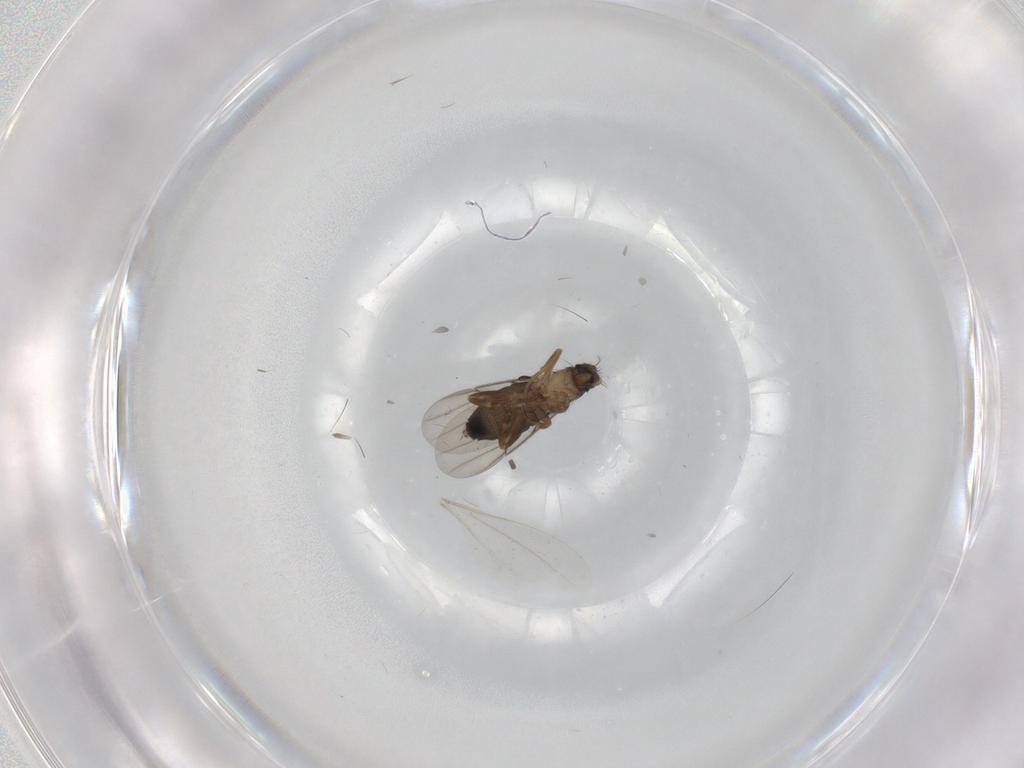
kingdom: Animalia
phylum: Arthropoda
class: Insecta
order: Diptera
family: Phoridae
